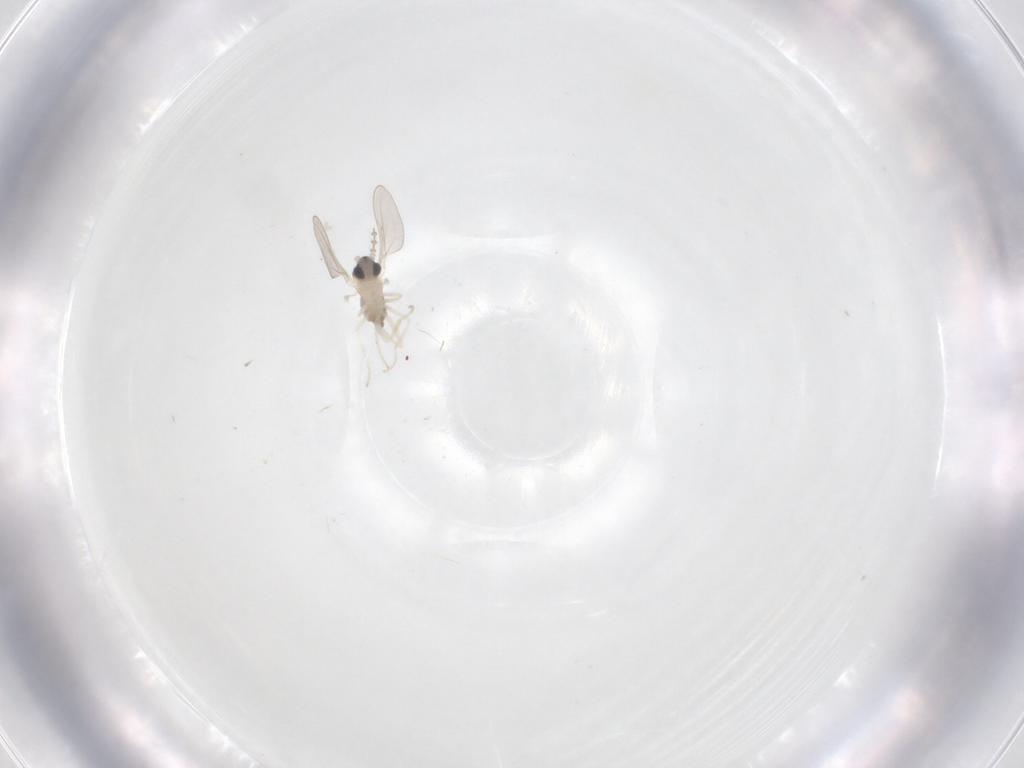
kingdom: Animalia
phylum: Arthropoda
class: Insecta
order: Diptera
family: Cecidomyiidae
